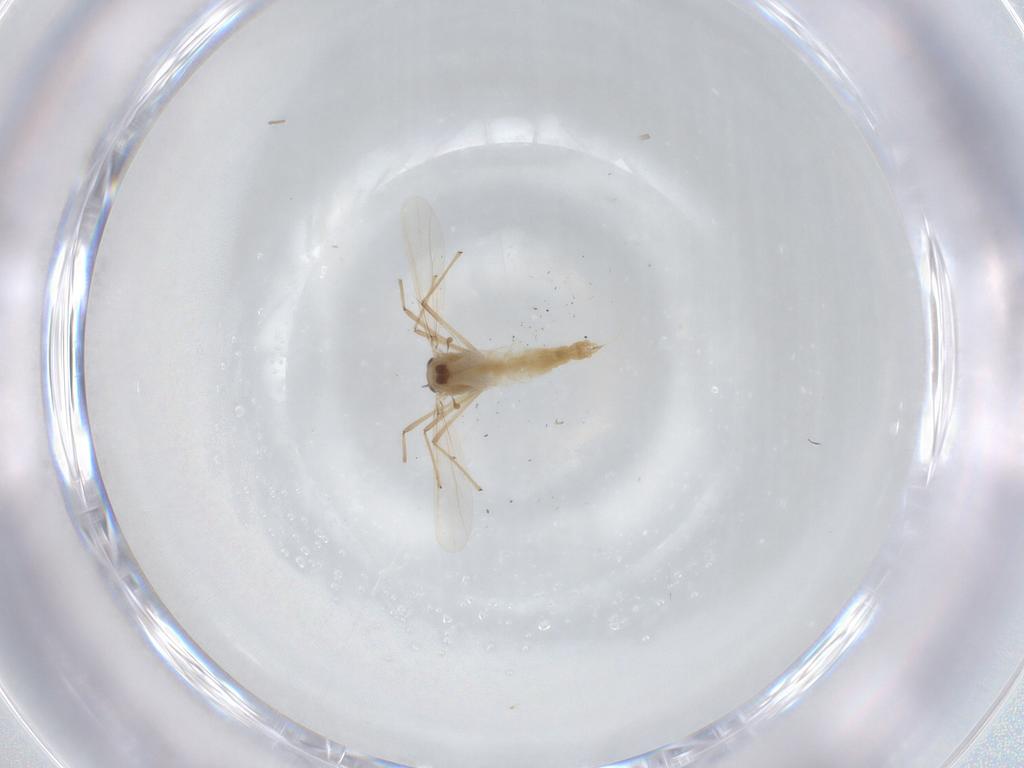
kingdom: Animalia
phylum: Arthropoda
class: Insecta
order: Diptera
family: Chironomidae
